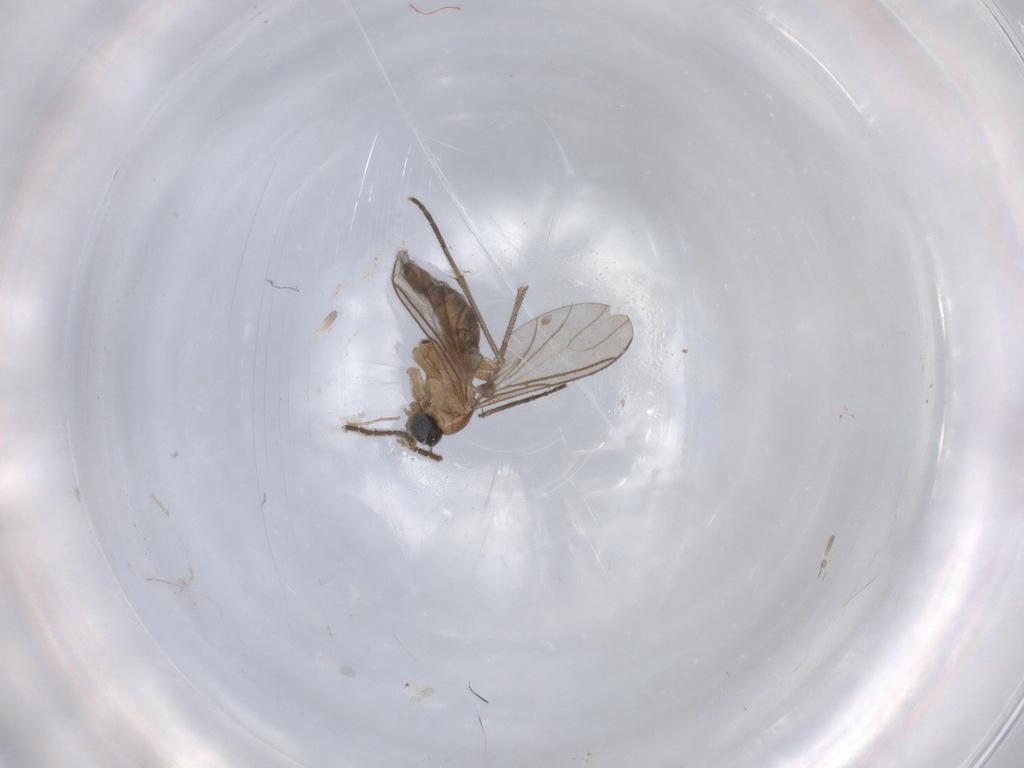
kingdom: Animalia
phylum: Arthropoda
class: Insecta
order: Diptera
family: Sciaridae
